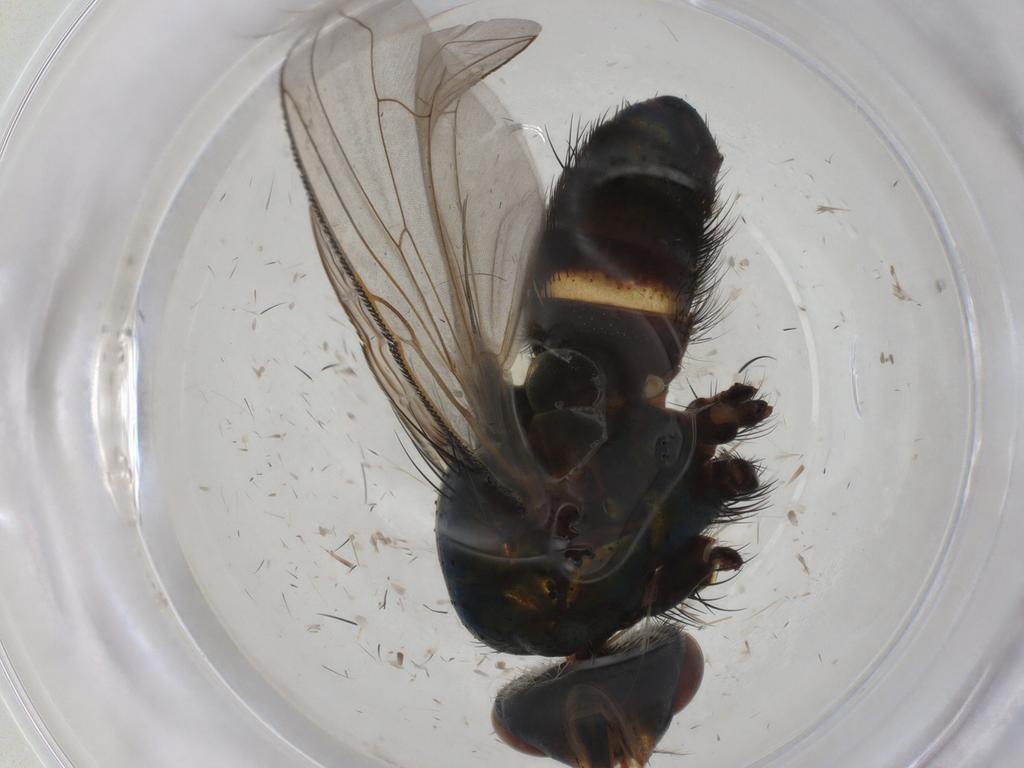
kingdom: Animalia
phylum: Arthropoda
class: Insecta
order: Diptera
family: Calliphoridae
